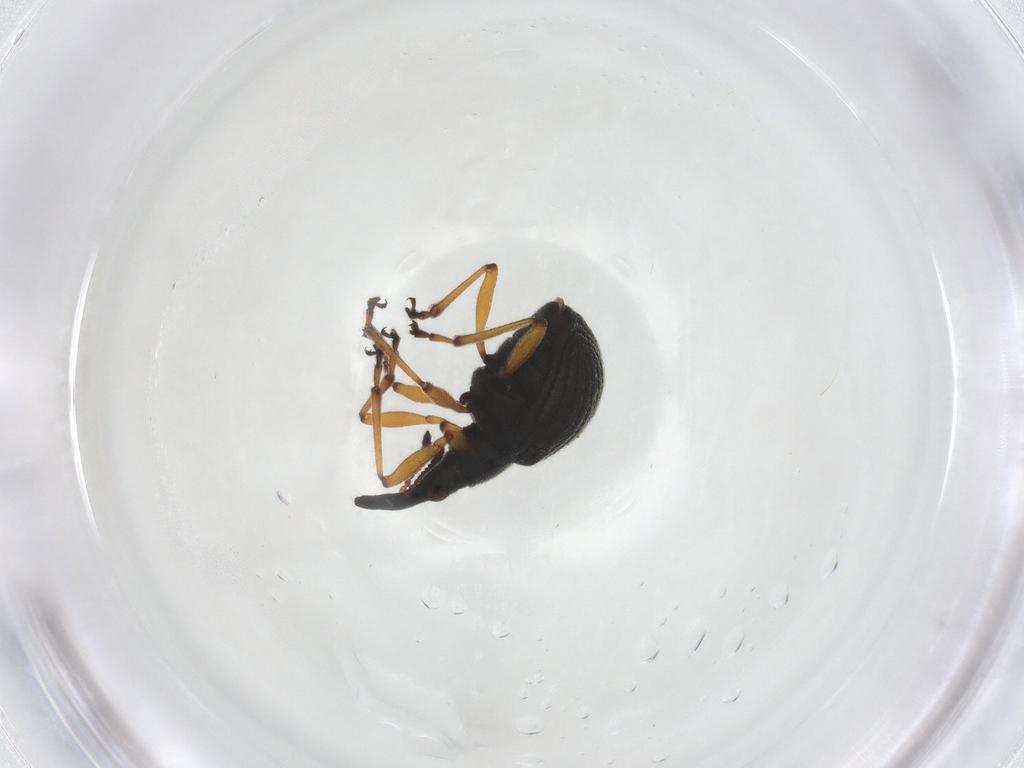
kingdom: Animalia
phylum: Arthropoda
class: Insecta
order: Coleoptera
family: Brentidae
